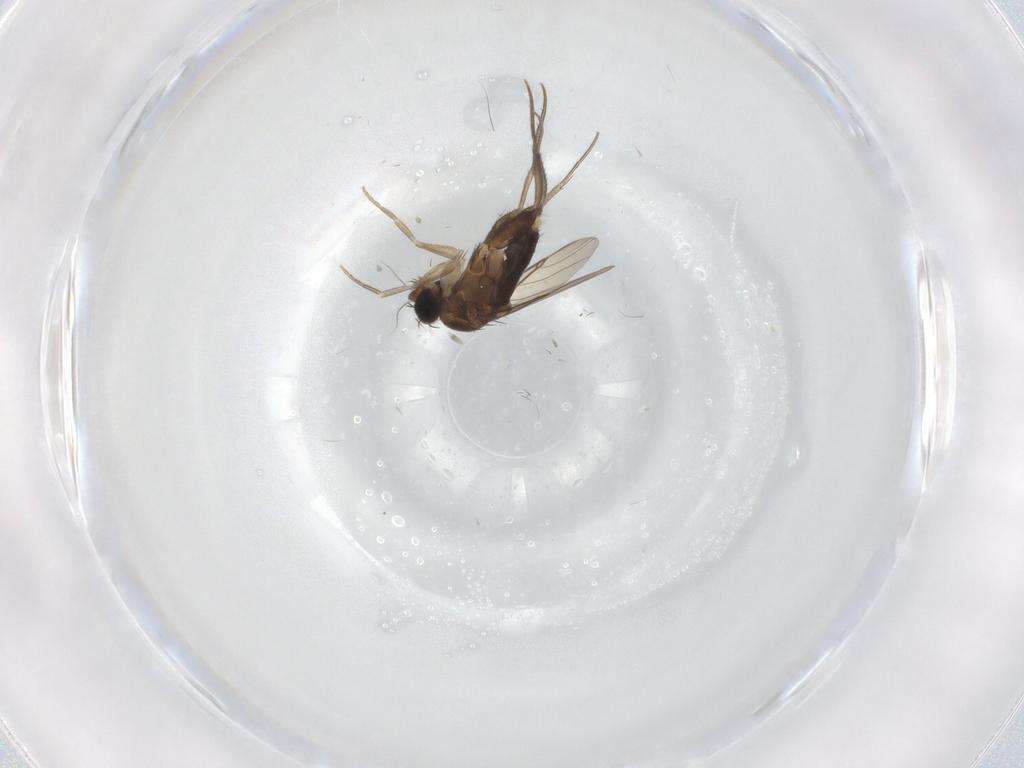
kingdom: Animalia
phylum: Arthropoda
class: Insecta
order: Diptera
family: Phoridae
